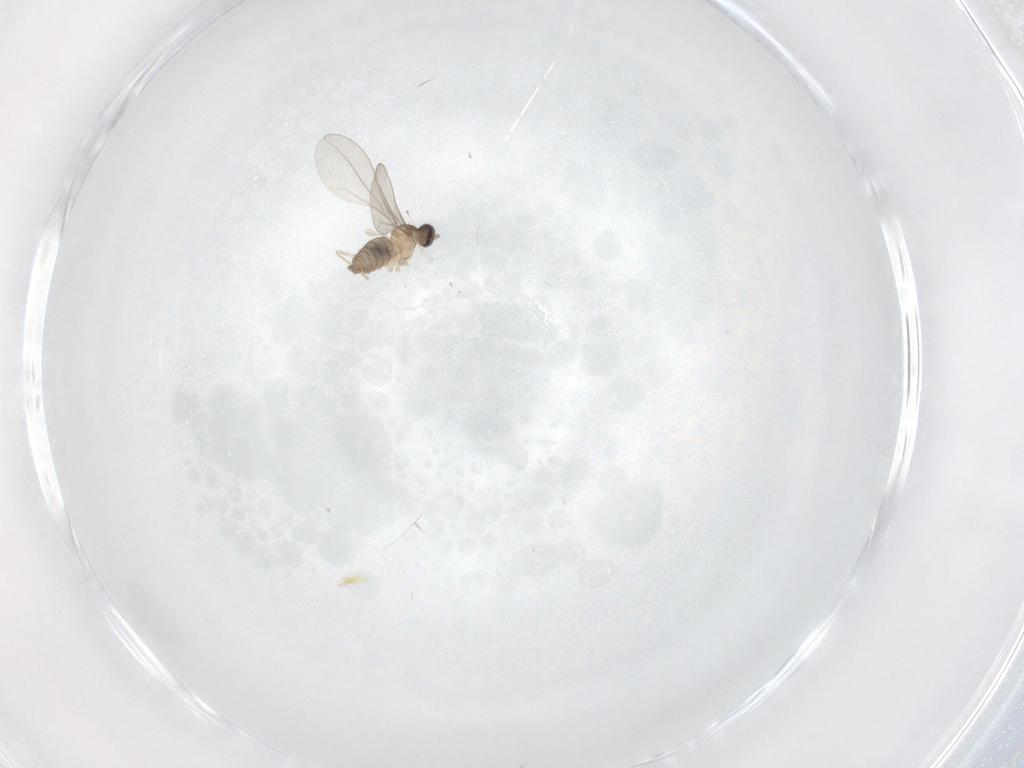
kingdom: Animalia
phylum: Arthropoda
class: Insecta
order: Diptera
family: Cecidomyiidae
